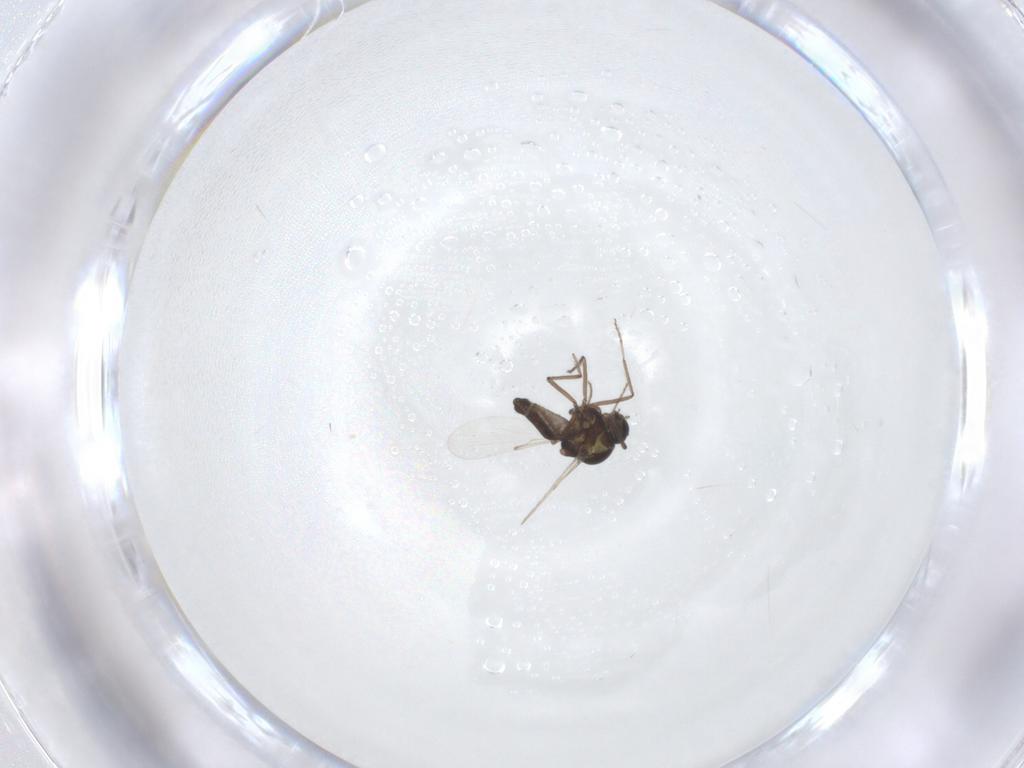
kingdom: Animalia
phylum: Arthropoda
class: Insecta
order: Diptera
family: Ceratopogonidae
